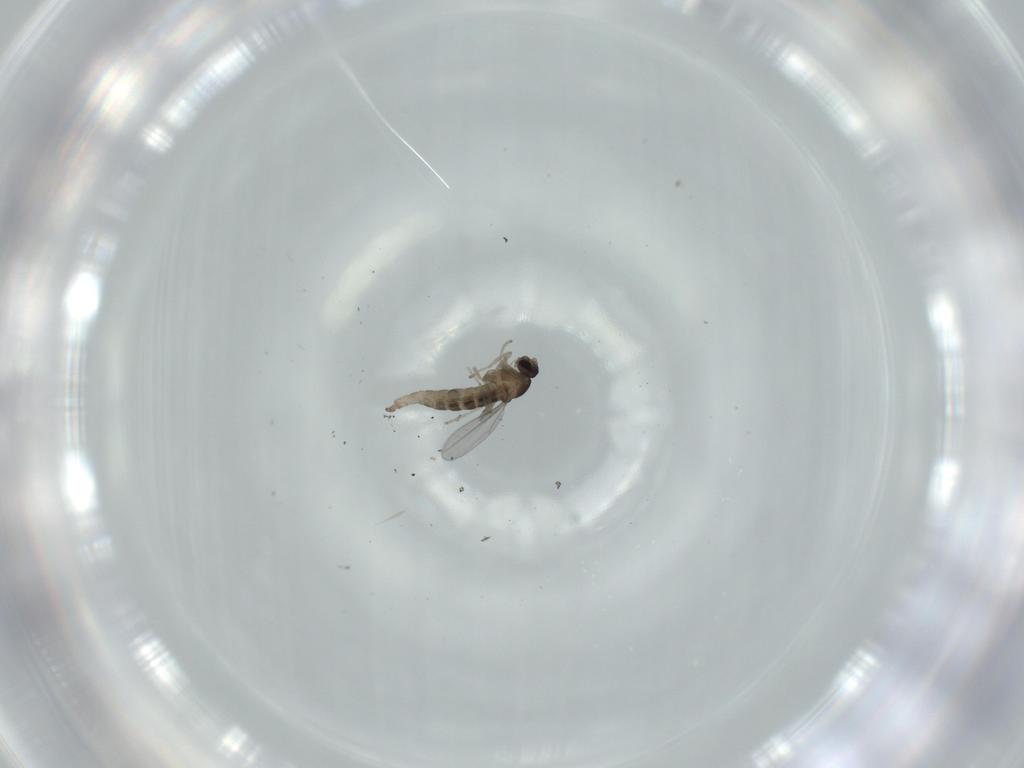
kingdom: Animalia
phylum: Arthropoda
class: Insecta
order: Diptera
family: Cecidomyiidae
